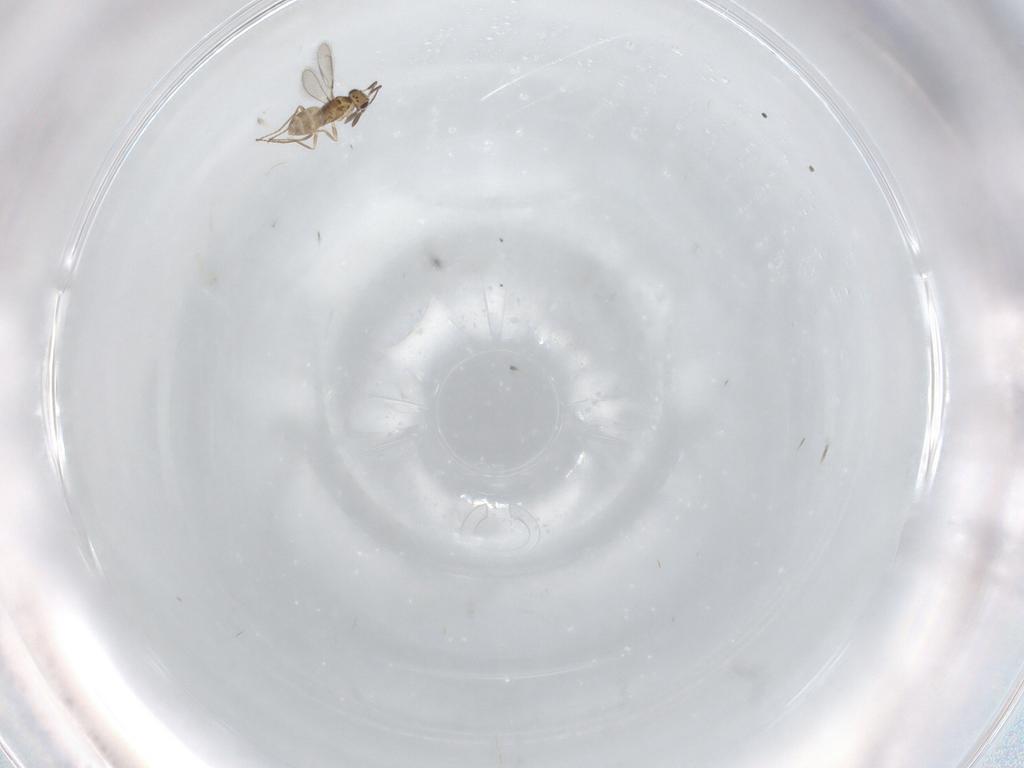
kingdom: Animalia
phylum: Arthropoda
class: Insecta
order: Hymenoptera
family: Mymaridae
